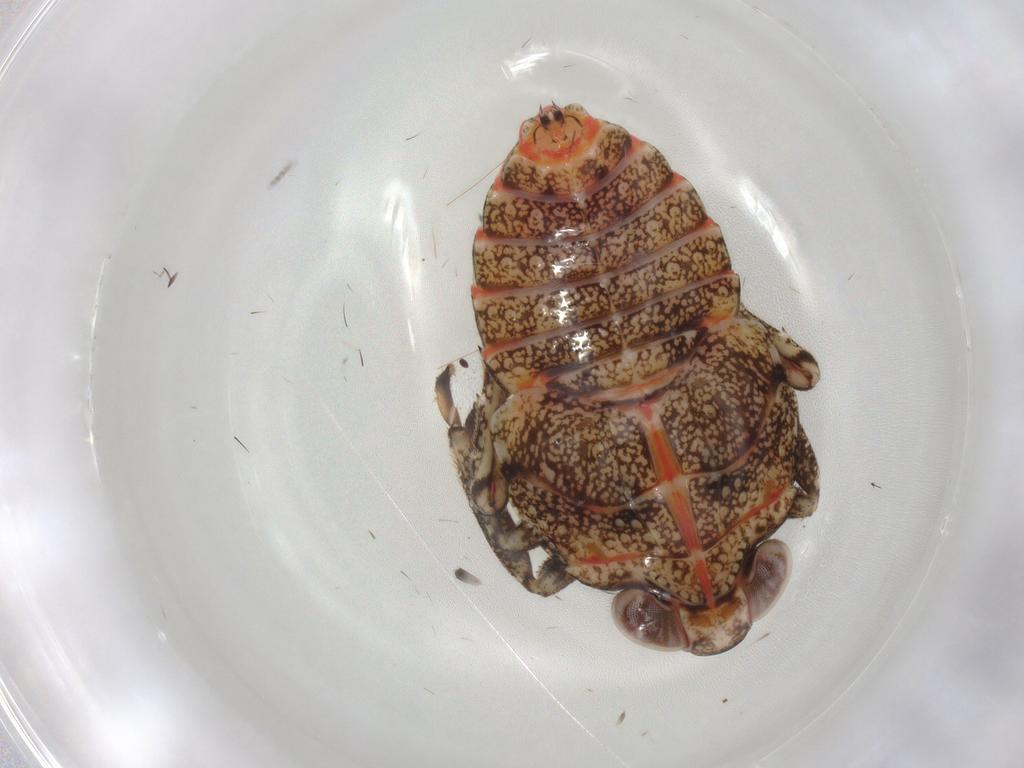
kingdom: Animalia
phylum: Arthropoda
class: Insecta
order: Hemiptera
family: Issidae
